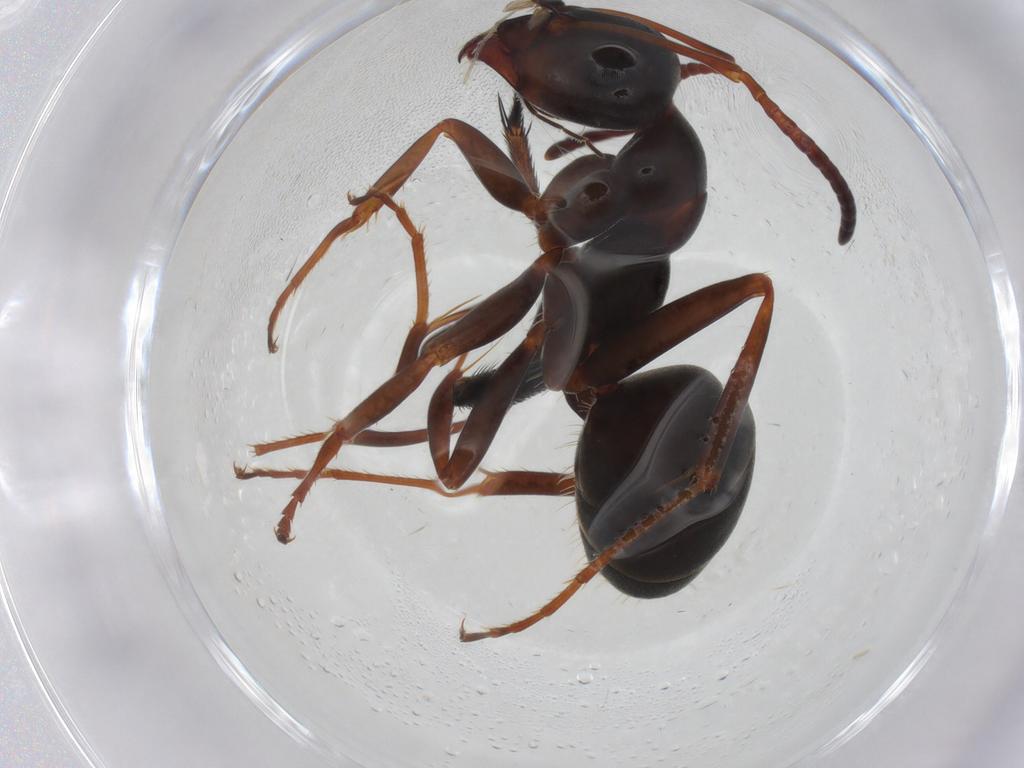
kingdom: Animalia
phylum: Arthropoda
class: Insecta
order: Hymenoptera
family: Formicidae
